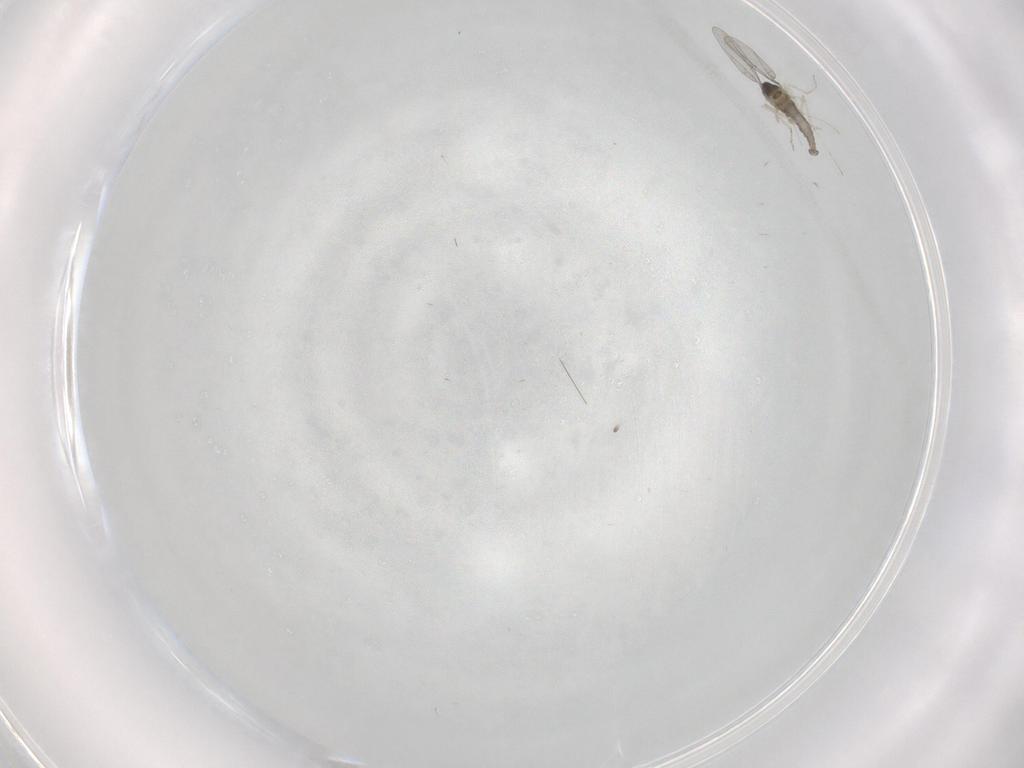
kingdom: Animalia
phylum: Arthropoda
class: Insecta
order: Diptera
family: Cecidomyiidae
